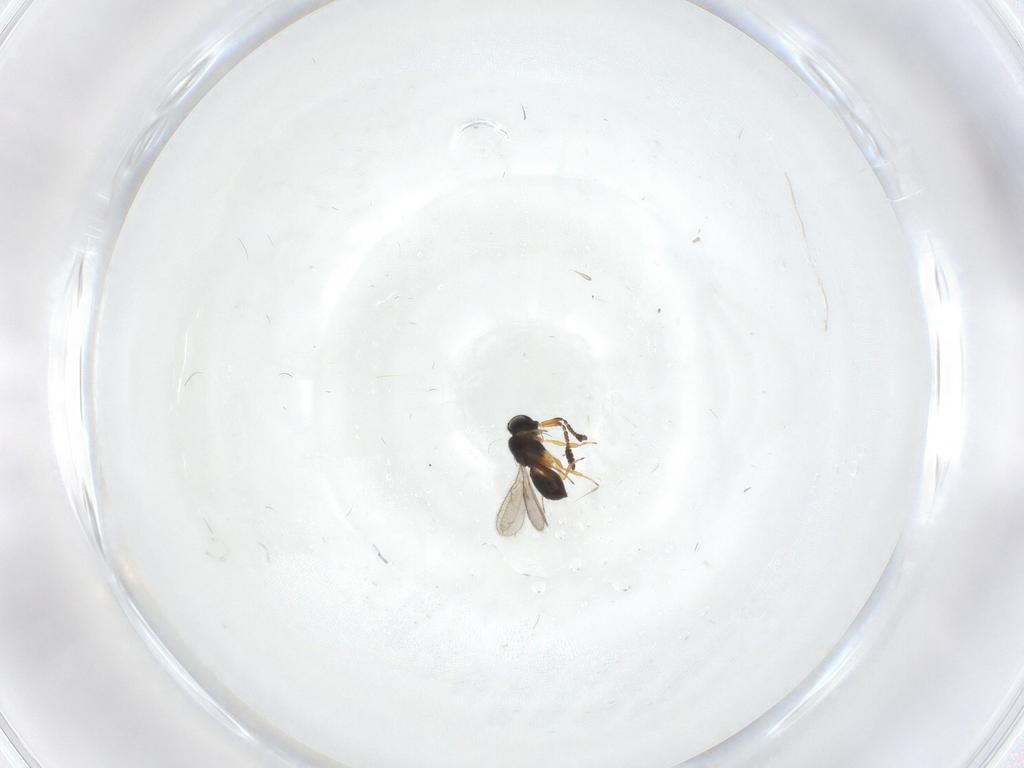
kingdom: Animalia
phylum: Arthropoda
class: Insecta
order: Hymenoptera
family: Scelionidae
